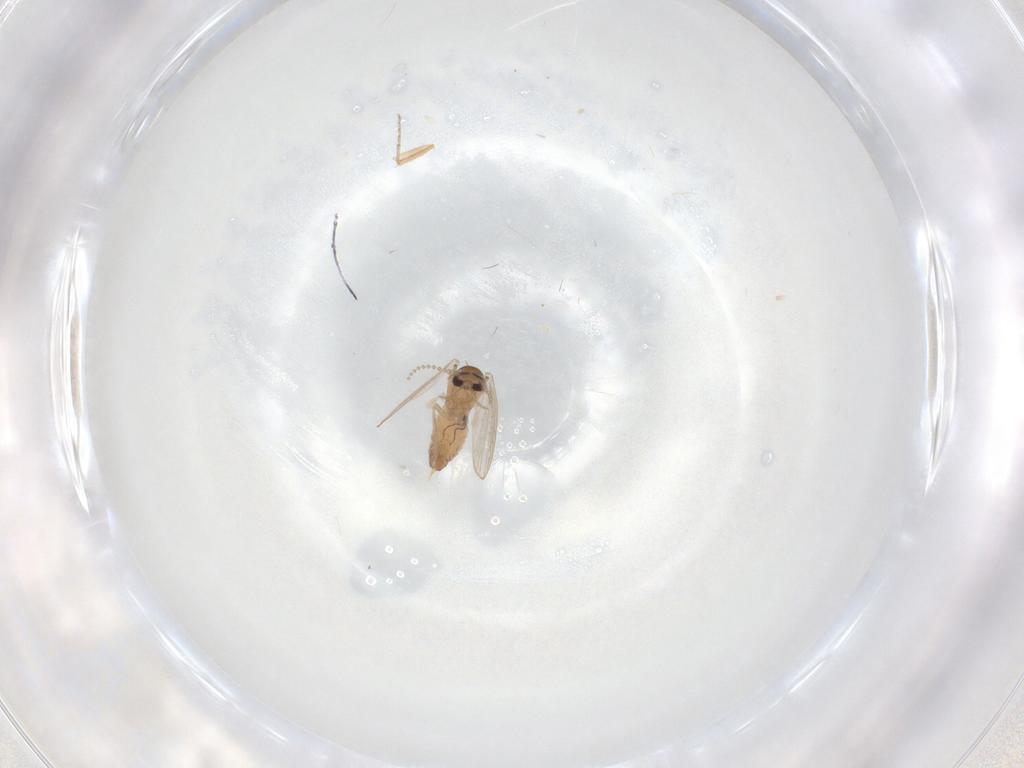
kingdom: Animalia
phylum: Arthropoda
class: Insecta
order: Diptera
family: Psychodidae
